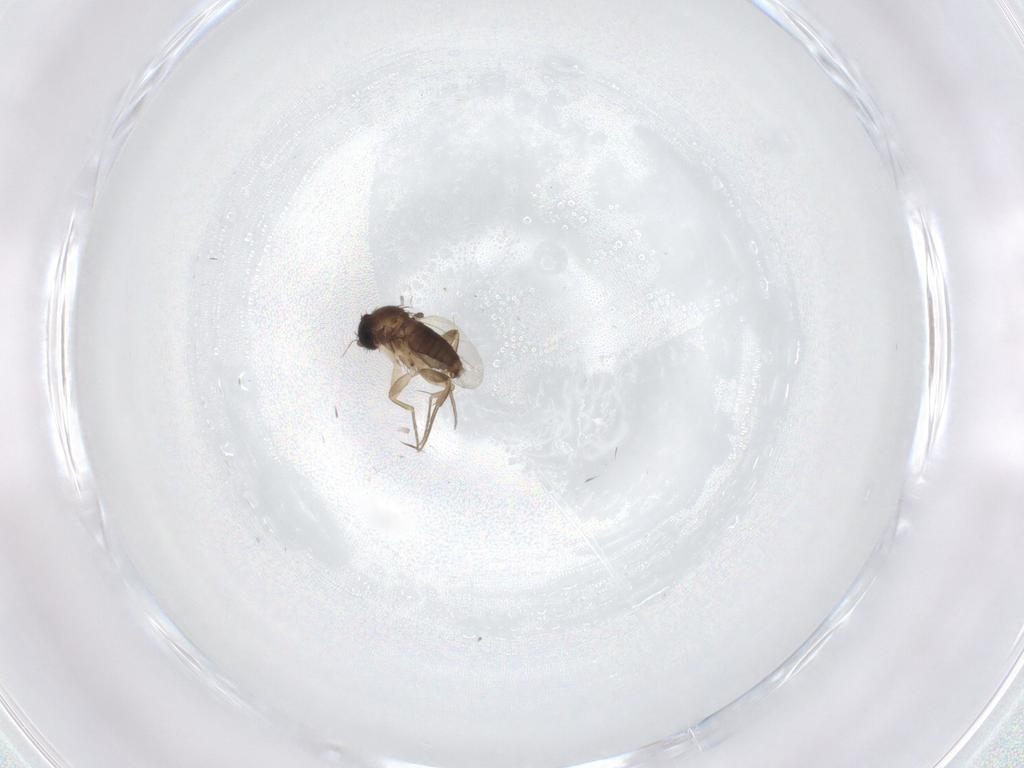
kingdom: Animalia
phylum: Arthropoda
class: Insecta
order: Diptera
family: Phoridae
